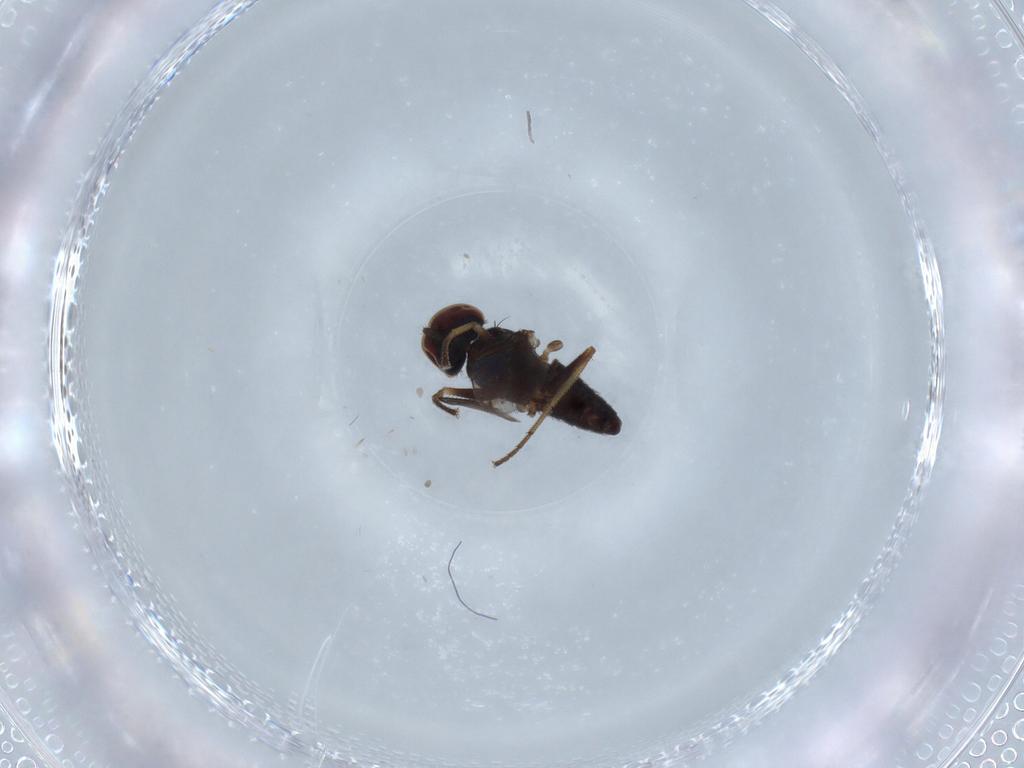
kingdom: Animalia
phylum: Arthropoda
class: Insecta
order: Diptera
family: Dolichopodidae
